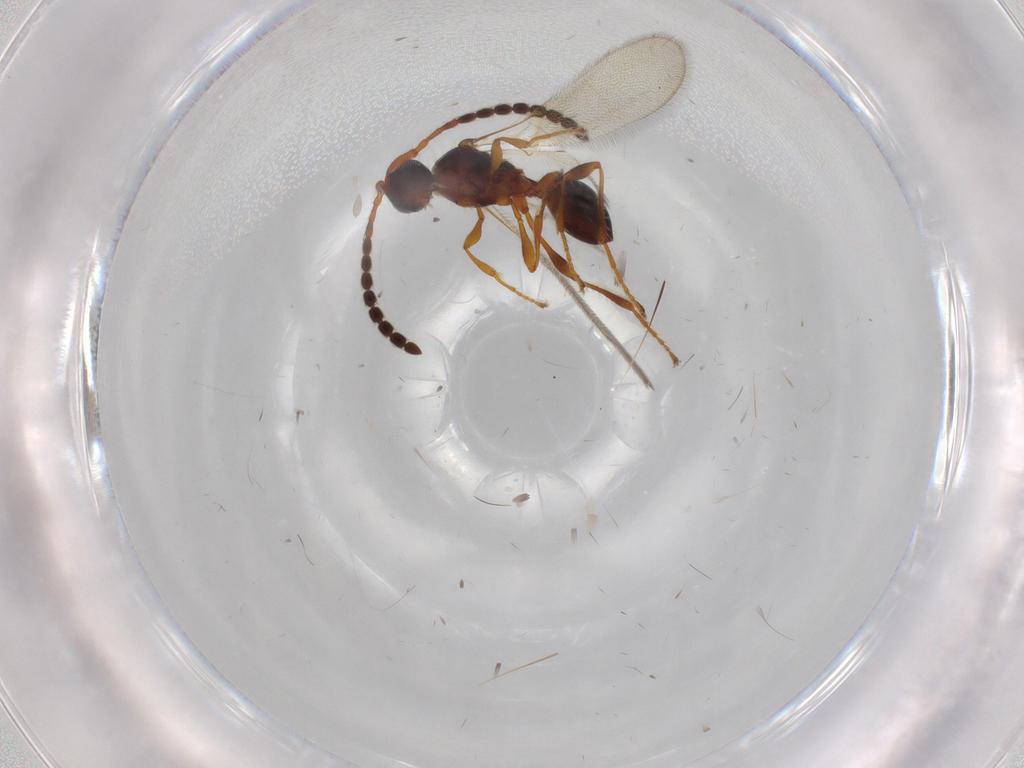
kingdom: Animalia
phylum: Arthropoda
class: Insecta
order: Hymenoptera
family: Diapriidae
